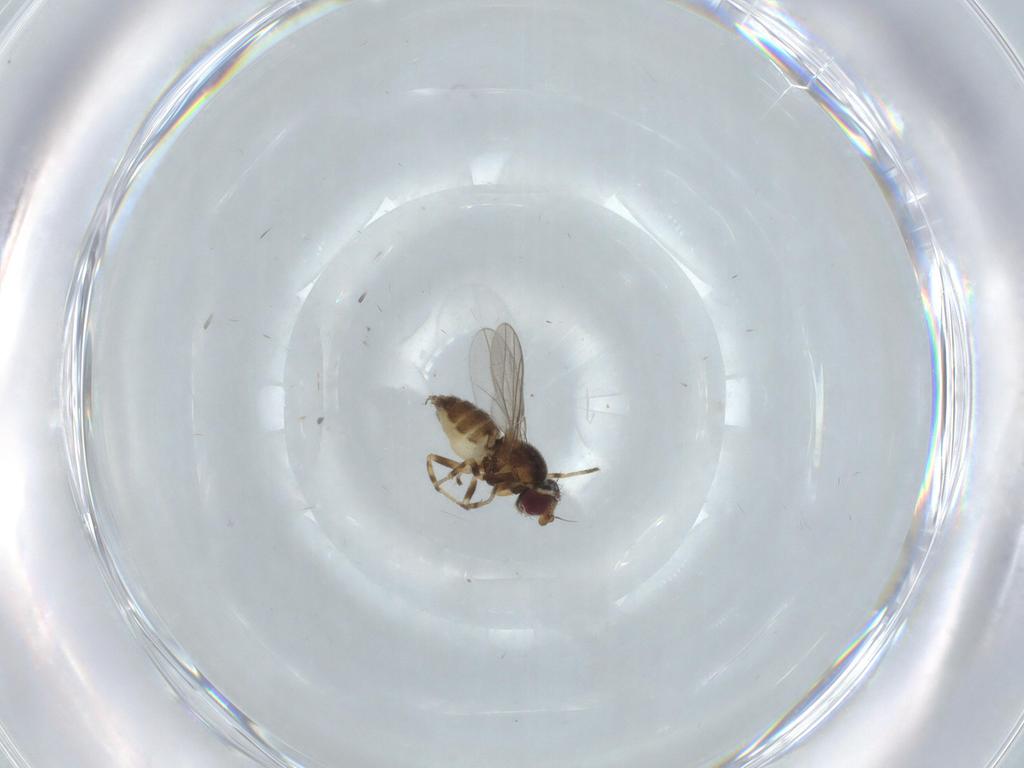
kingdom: Animalia
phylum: Arthropoda
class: Insecta
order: Diptera
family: Chloropidae
